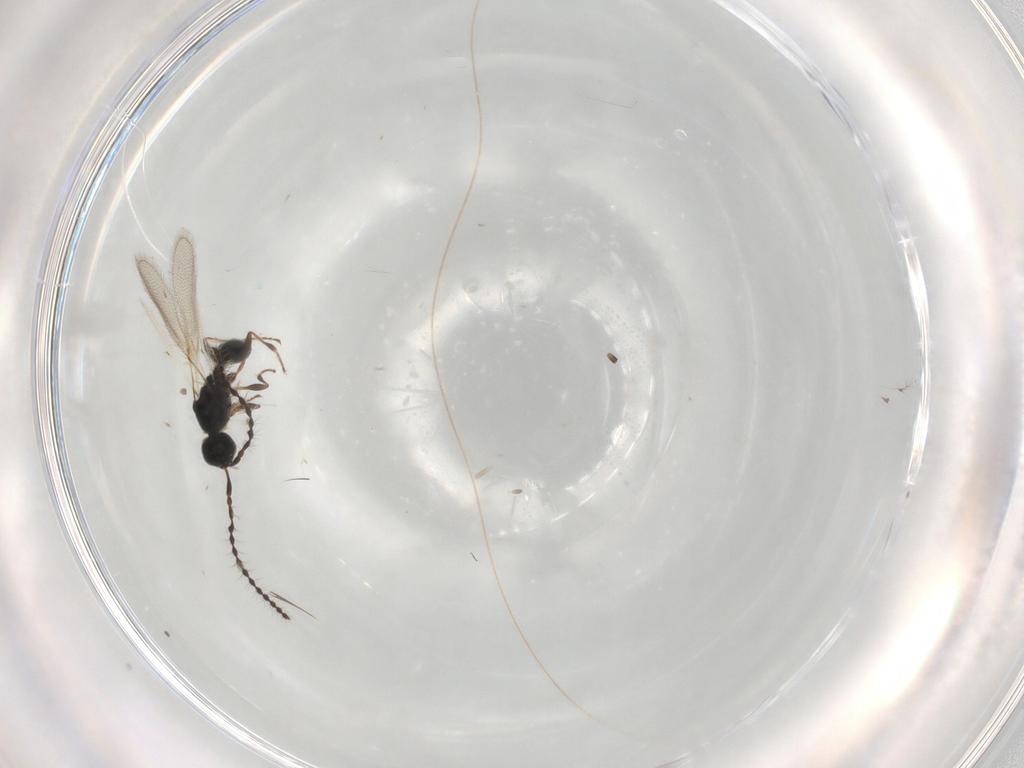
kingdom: Animalia
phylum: Arthropoda
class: Insecta
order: Hymenoptera
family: Diapriidae
